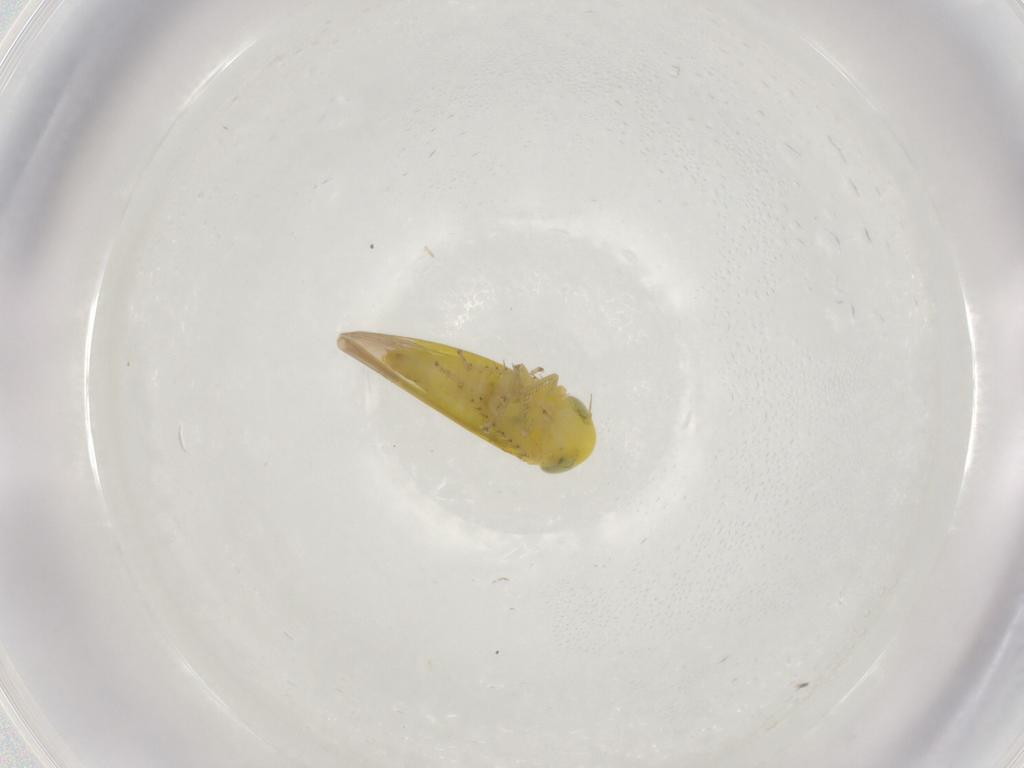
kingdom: Animalia
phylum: Arthropoda
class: Insecta
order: Hemiptera
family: Cicadellidae
